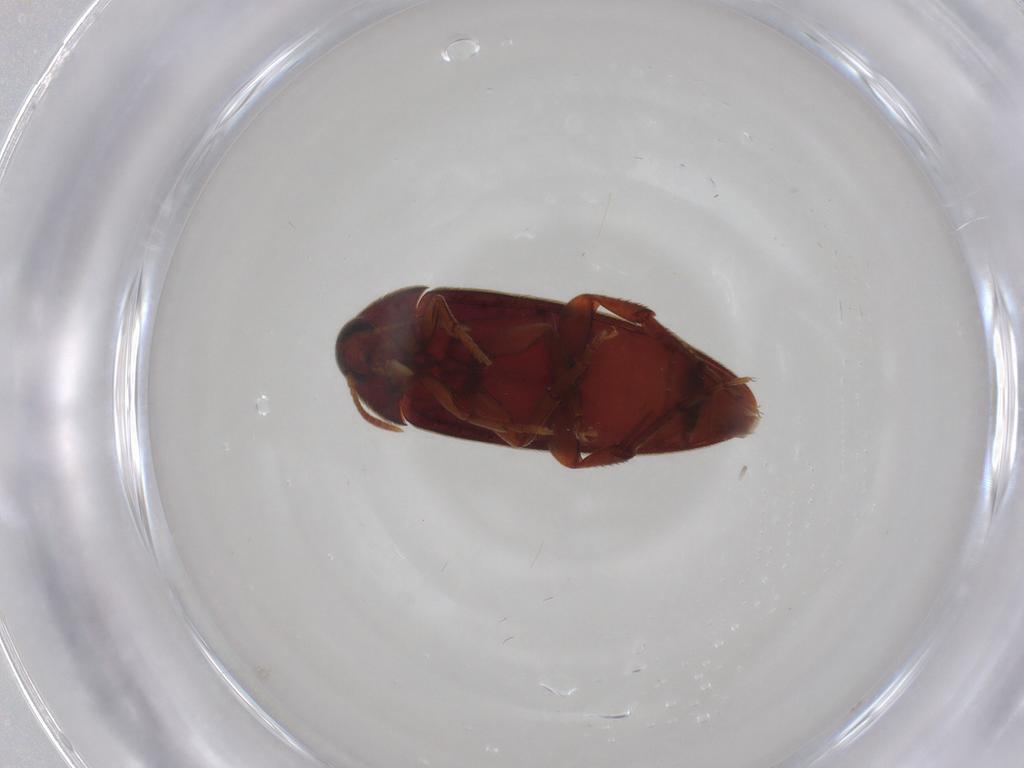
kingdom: Animalia
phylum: Arthropoda
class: Insecta
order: Coleoptera
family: Melandryidae
